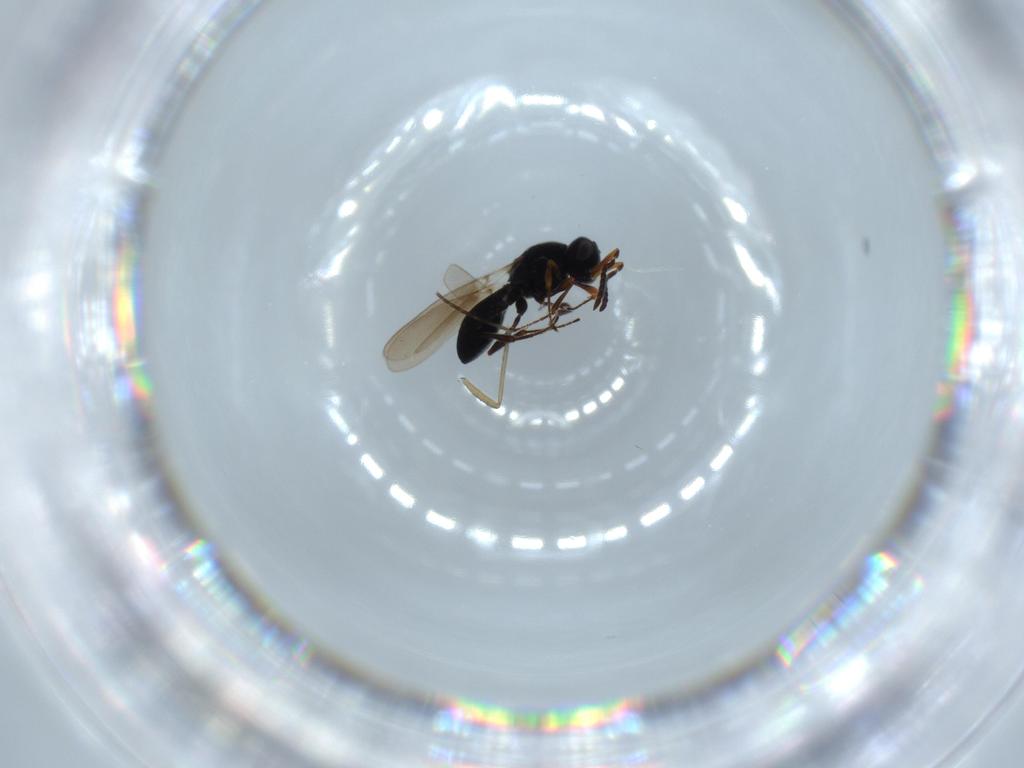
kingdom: Animalia
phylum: Arthropoda
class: Insecta
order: Hymenoptera
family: Platygastridae
